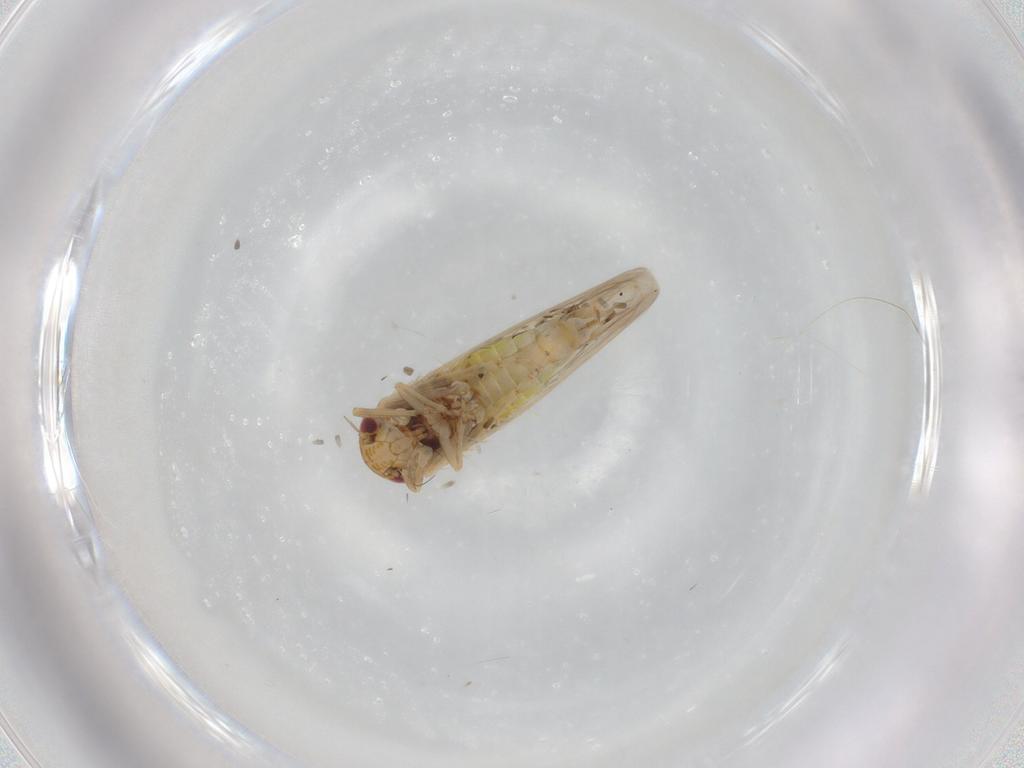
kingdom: Animalia
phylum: Arthropoda
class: Insecta
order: Hemiptera
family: Cicadellidae
